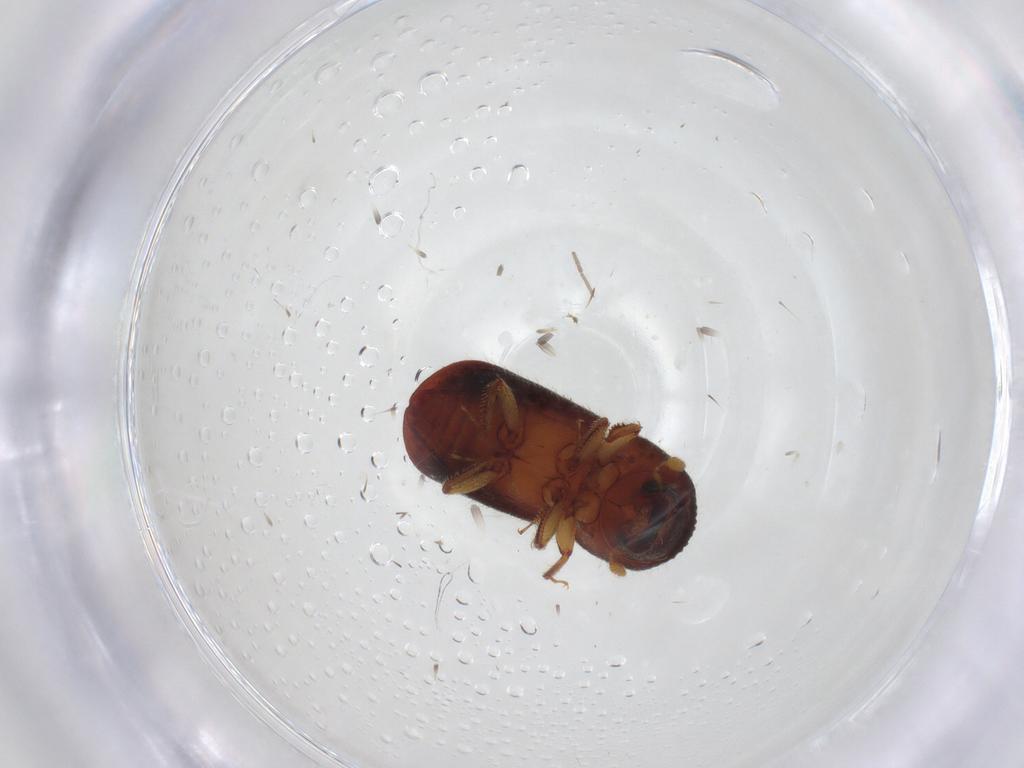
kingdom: Animalia
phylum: Arthropoda
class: Insecta
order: Coleoptera
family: Curculionidae
